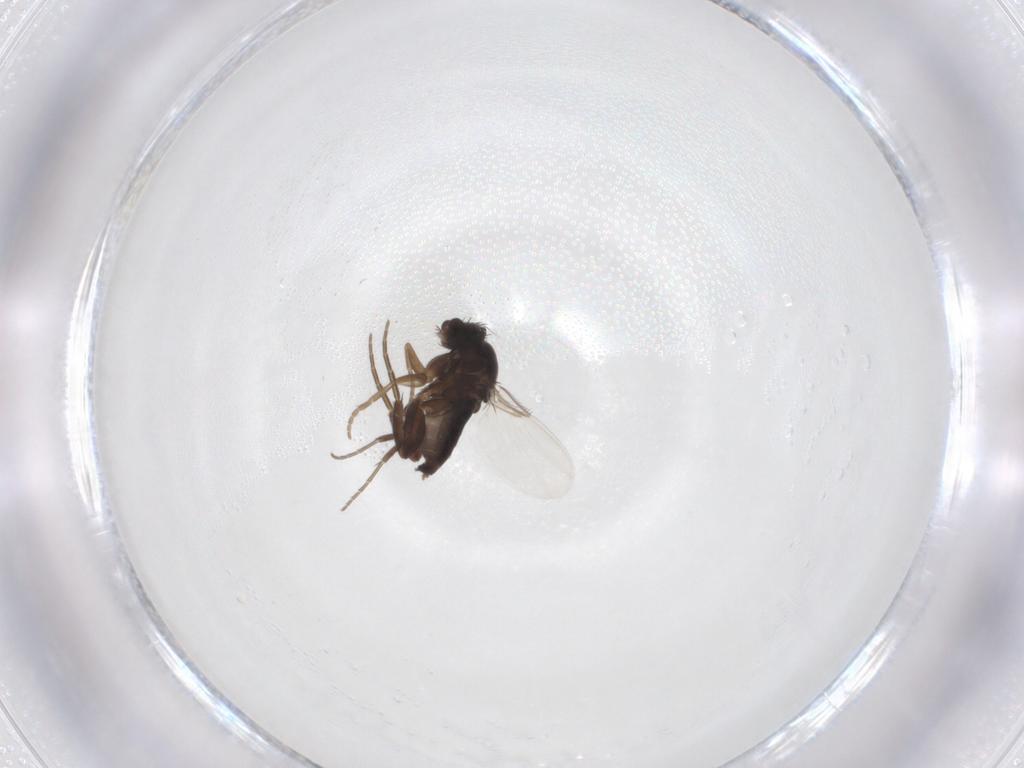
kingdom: Animalia
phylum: Arthropoda
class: Insecta
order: Diptera
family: Phoridae
